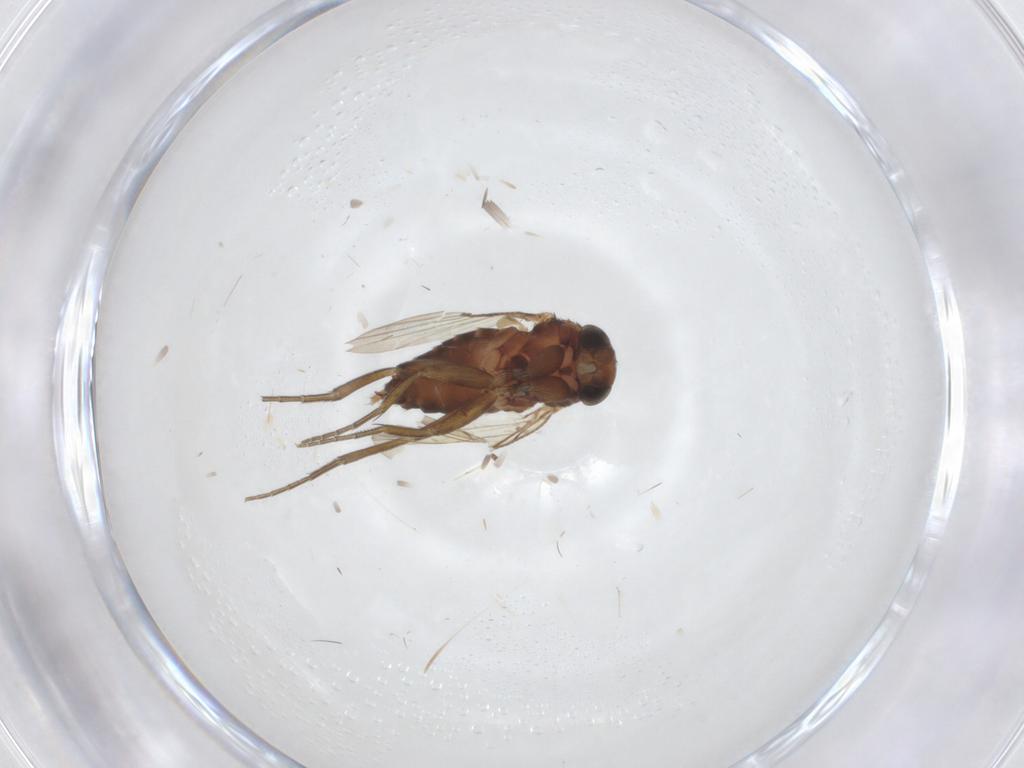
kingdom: Animalia
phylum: Arthropoda
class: Insecta
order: Diptera
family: Phoridae
